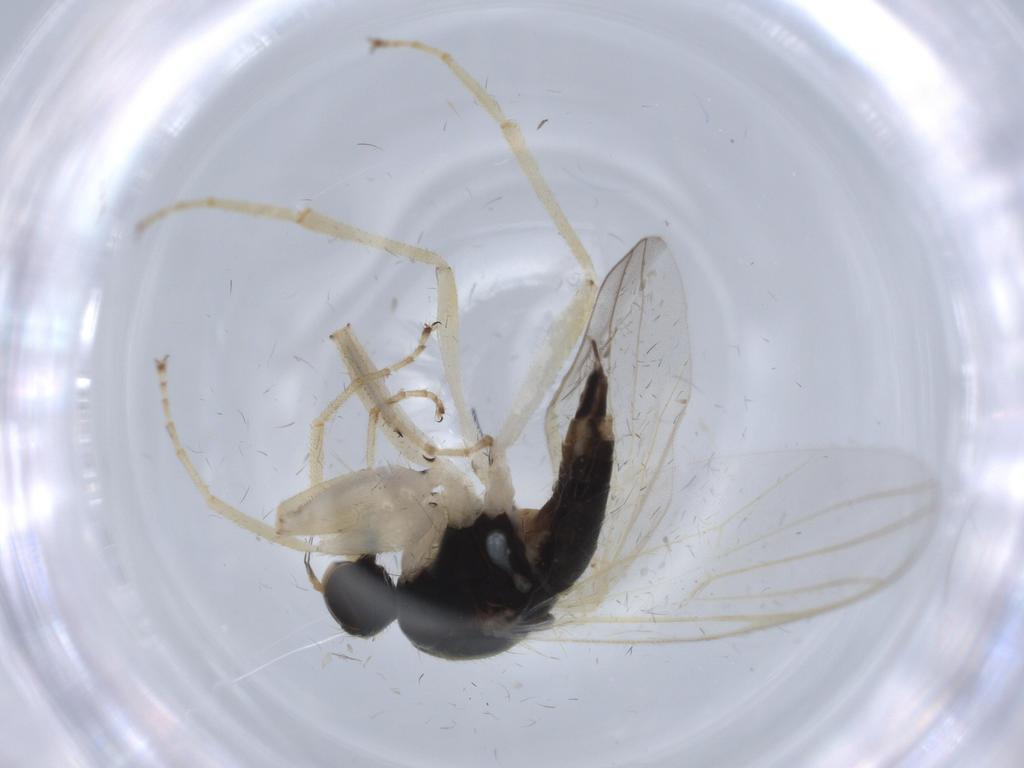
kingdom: Animalia
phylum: Arthropoda
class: Insecta
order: Diptera
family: Hybotidae
